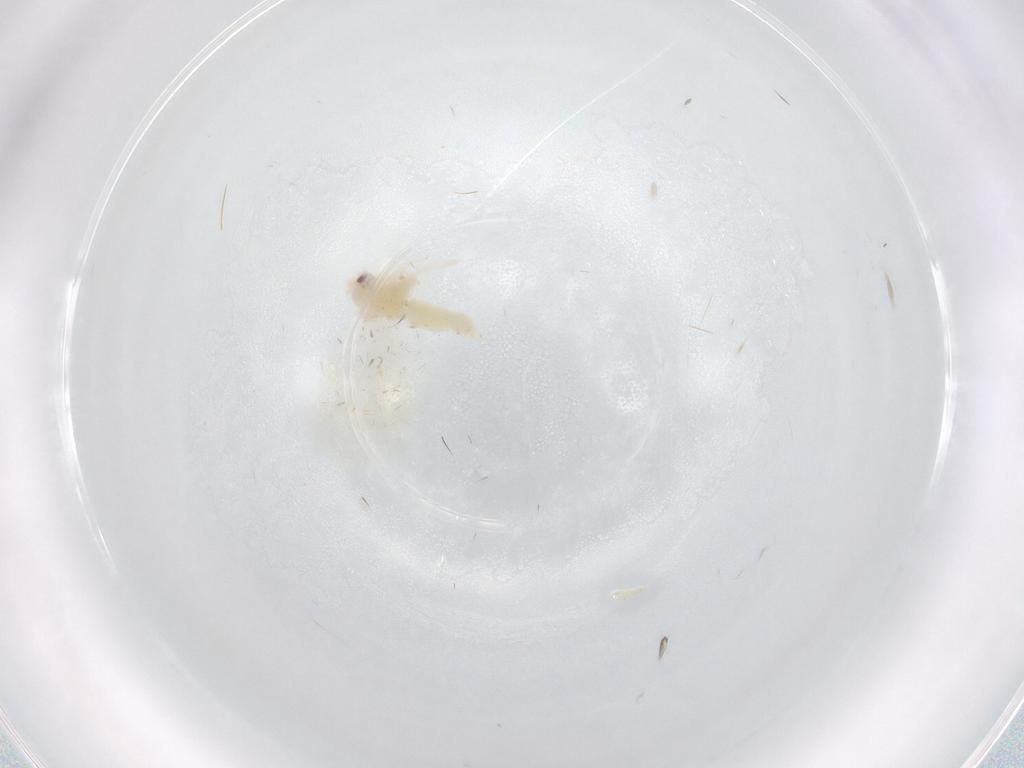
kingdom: Animalia
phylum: Arthropoda
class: Insecta
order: Hemiptera
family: Aleyrodidae
